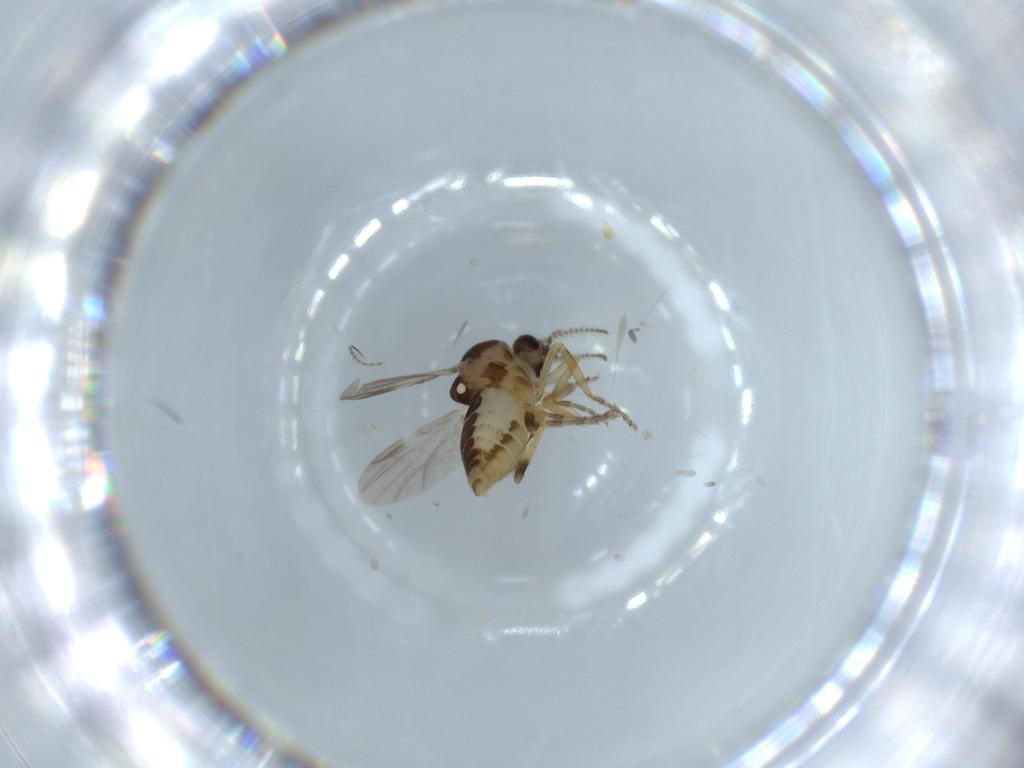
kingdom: Animalia
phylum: Arthropoda
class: Insecta
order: Diptera
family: Ceratopogonidae
